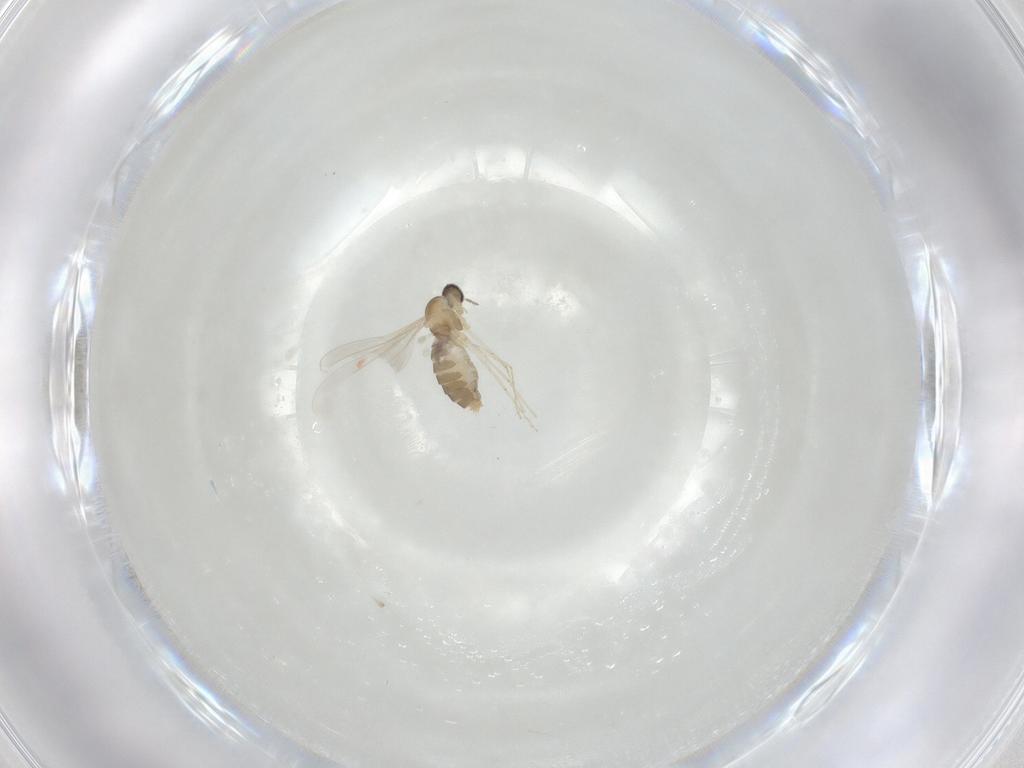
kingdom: Animalia
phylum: Arthropoda
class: Insecta
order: Diptera
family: Cecidomyiidae
